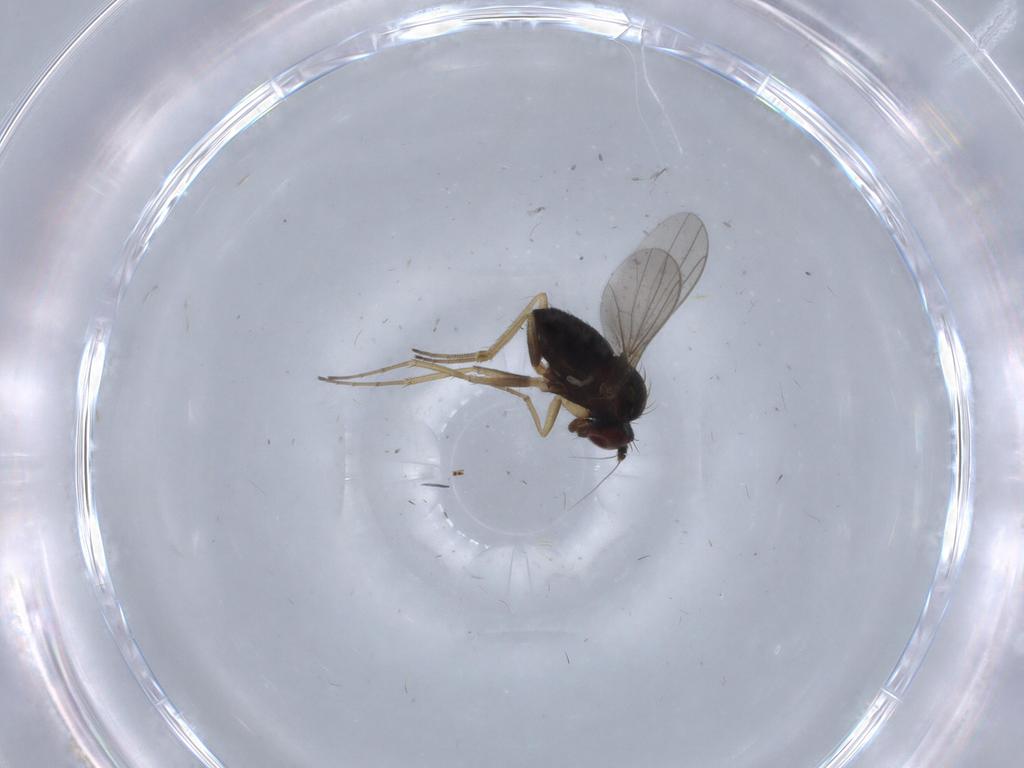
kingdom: Animalia
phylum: Arthropoda
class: Insecta
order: Diptera
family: Dolichopodidae
